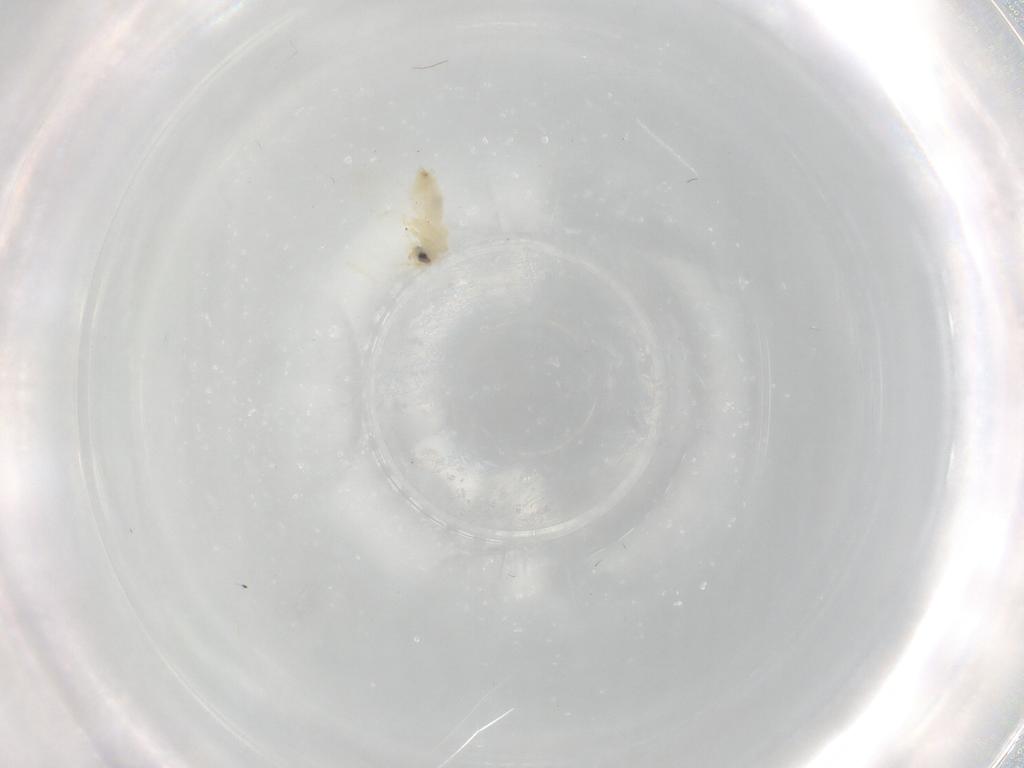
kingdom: Animalia
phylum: Arthropoda
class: Insecta
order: Hemiptera
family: Aleyrodidae
